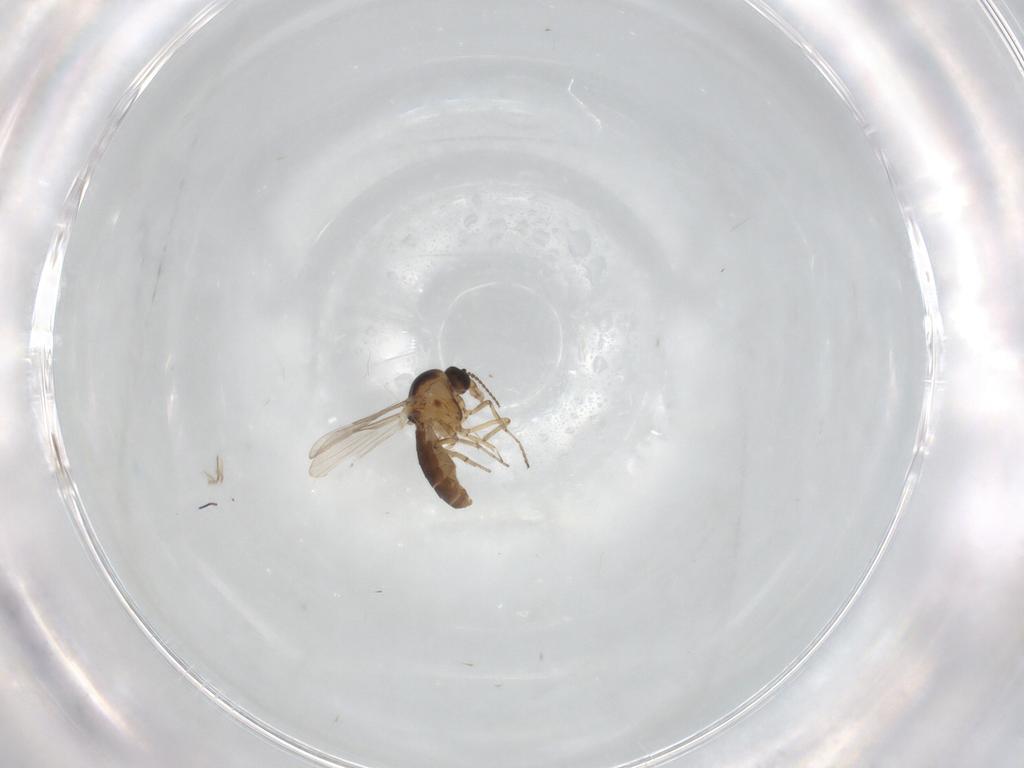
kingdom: Animalia
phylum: Arthropoda
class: Insecta
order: Diptera
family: Ceratopogonidae
